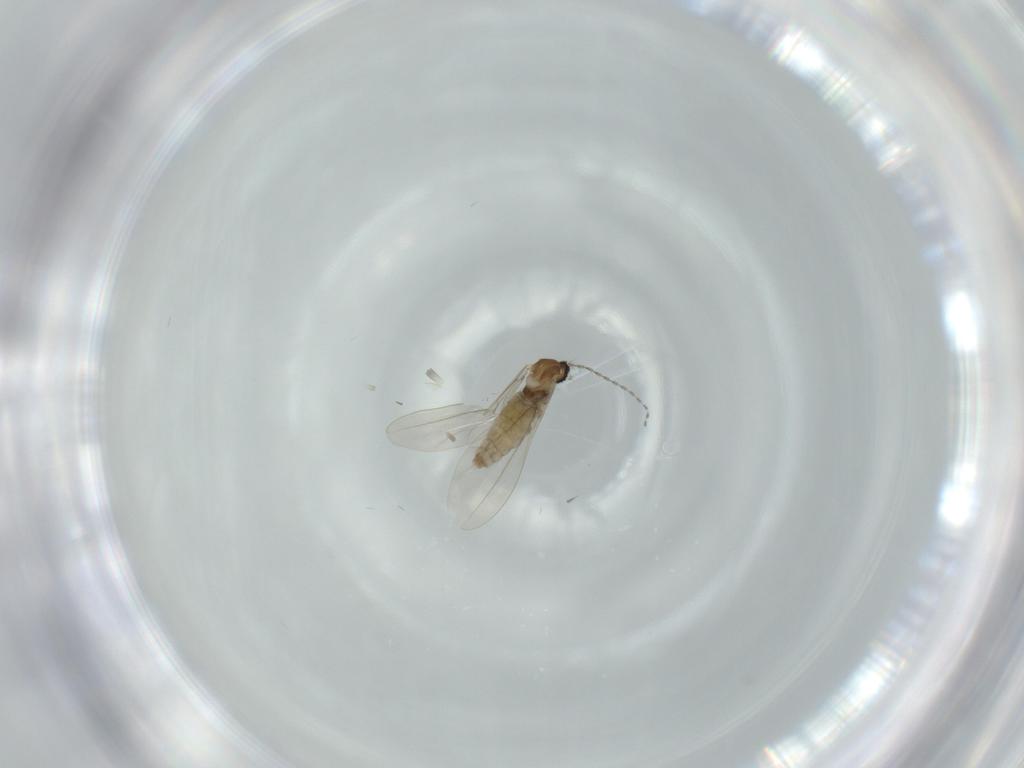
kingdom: Animalia
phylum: Arthropoda
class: Insecta
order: Diptera
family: Cecidomyiidae
